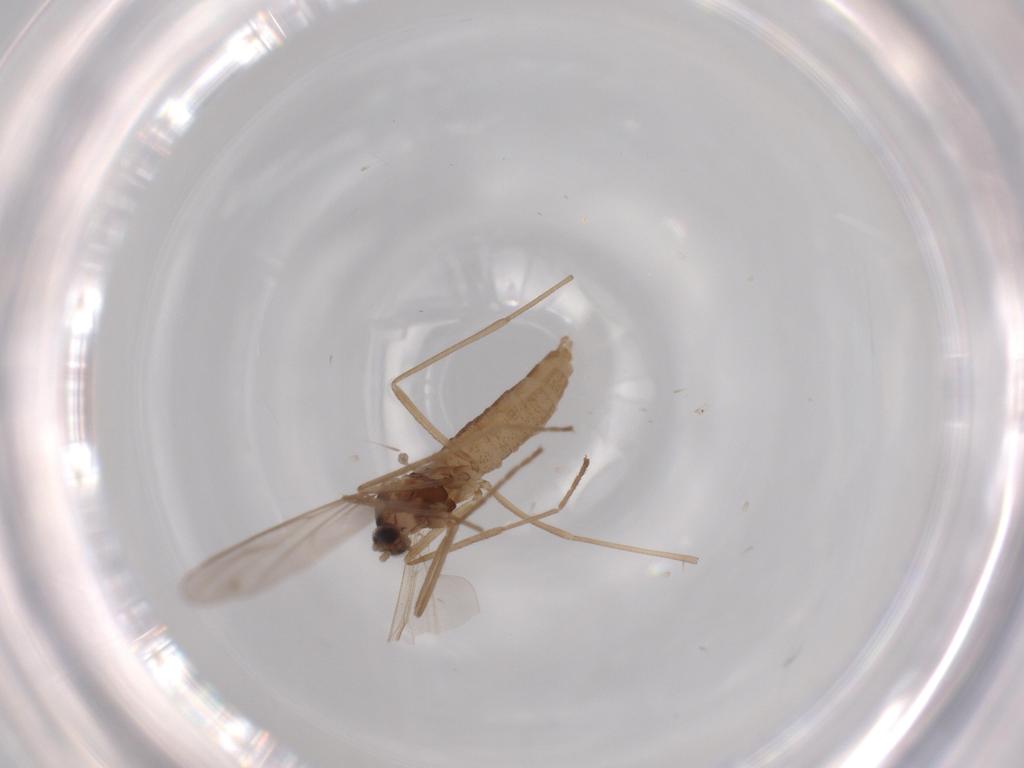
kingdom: Animalia
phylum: Arthropoda
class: Insecta
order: Diptera
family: Cecidomyiidae
